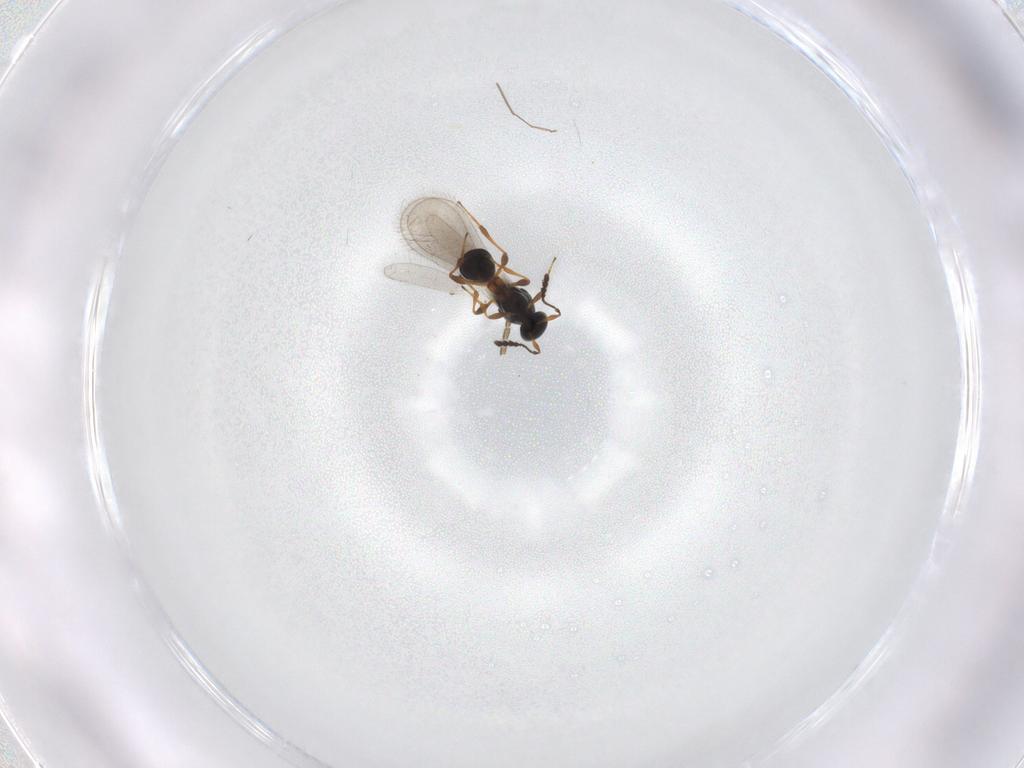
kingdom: Animalia
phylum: Arthropoda
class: Insecta
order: Hymenoptera
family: Platygastridae
